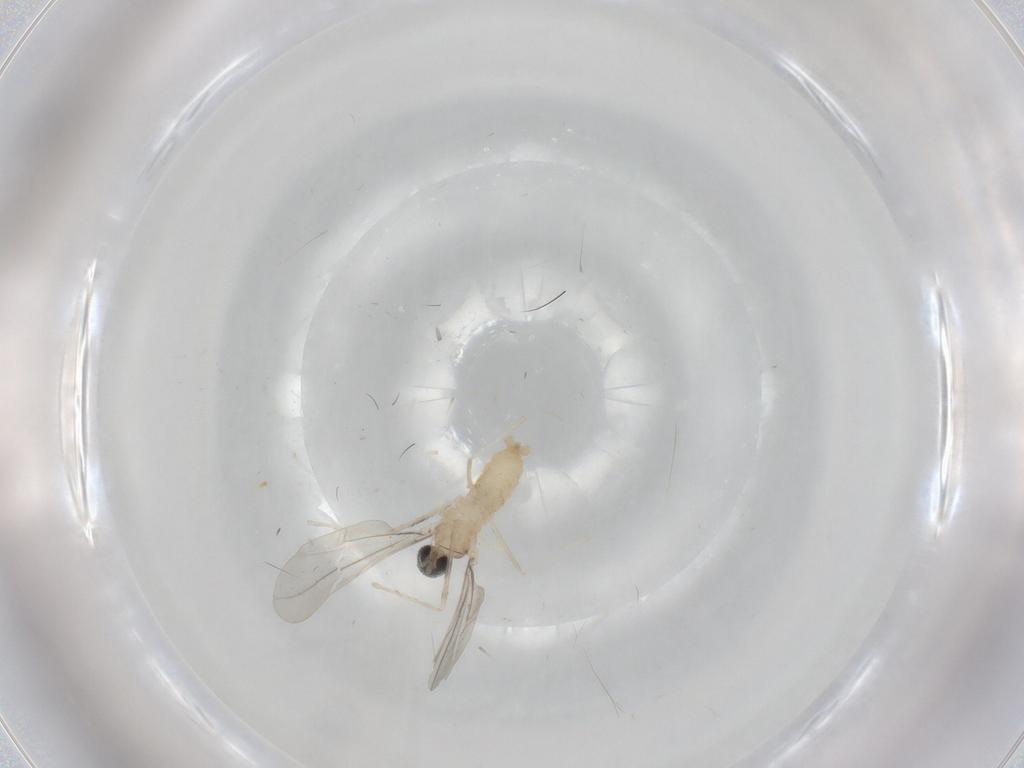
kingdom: Animalia
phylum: Arthropoda
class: Insecta
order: Diptera
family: Cecidomyiidae
